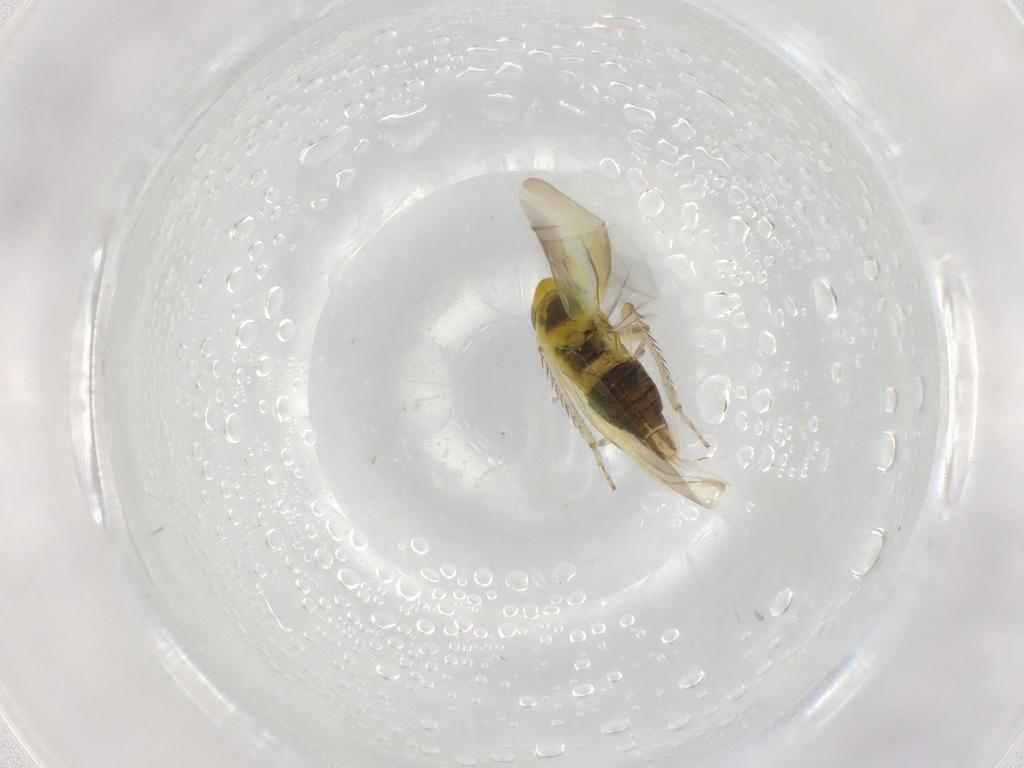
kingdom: Animalia
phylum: Arthropoda
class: Insecta
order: Hemiptera
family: Cicadellidae
